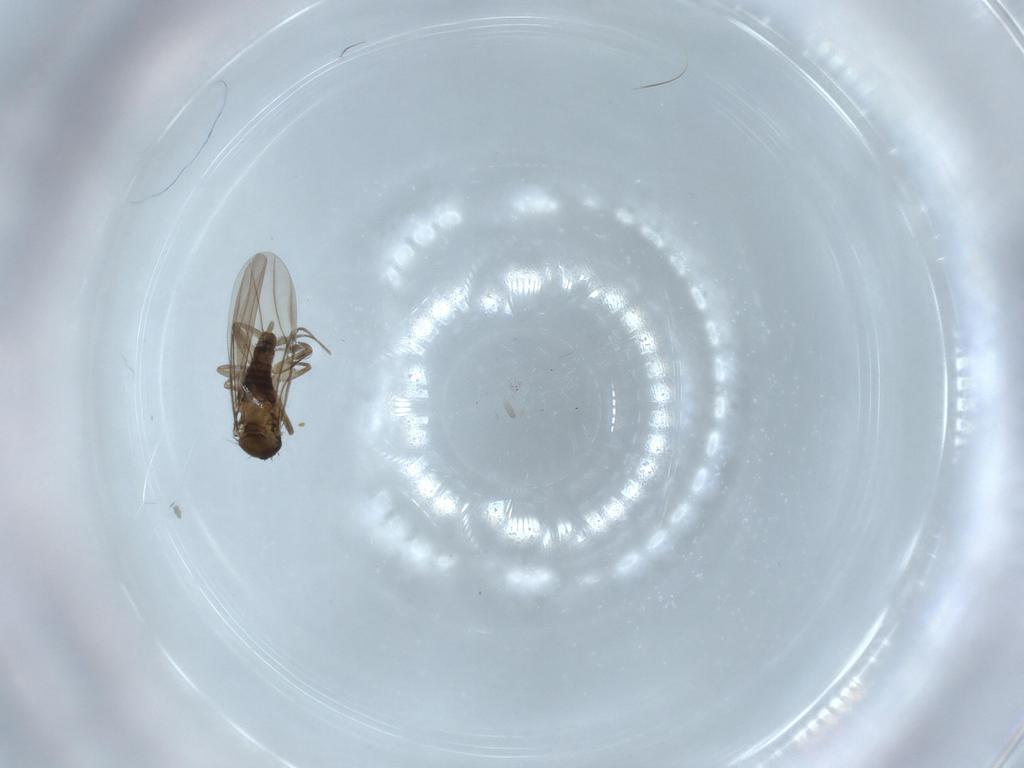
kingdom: Animalia
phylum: Arthropoda
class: Insecta
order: Diptera
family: Phoridae
